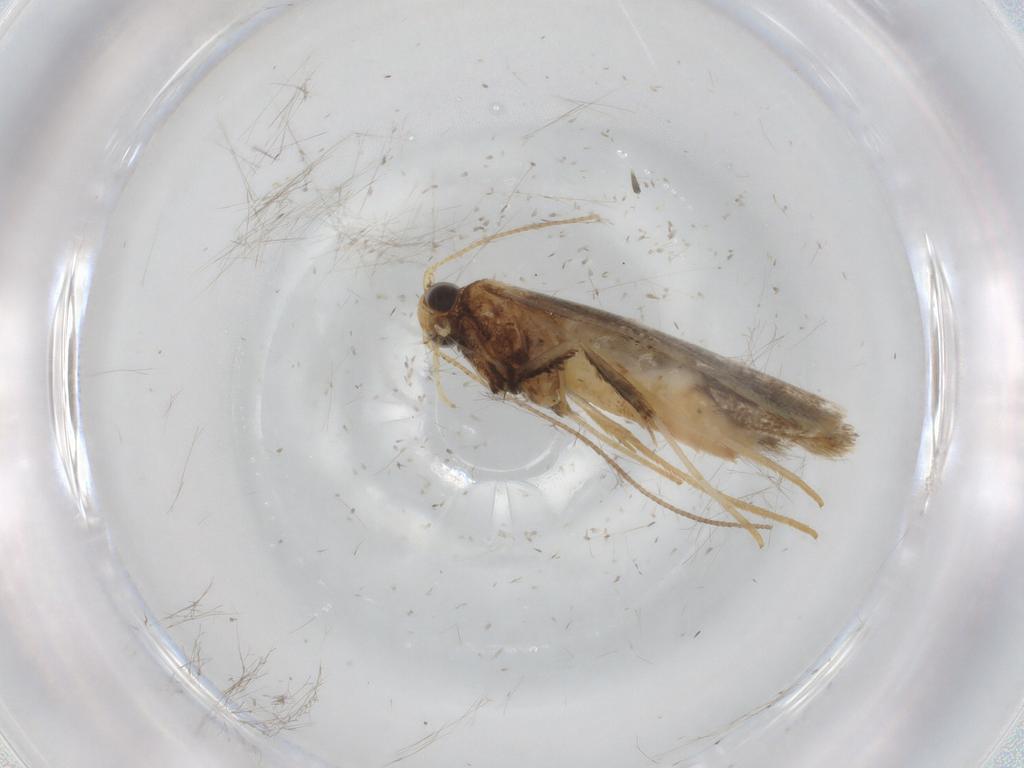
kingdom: Animalia
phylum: Arthropoda
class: Insecta
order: Lepidoptera
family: Gracillariidae
